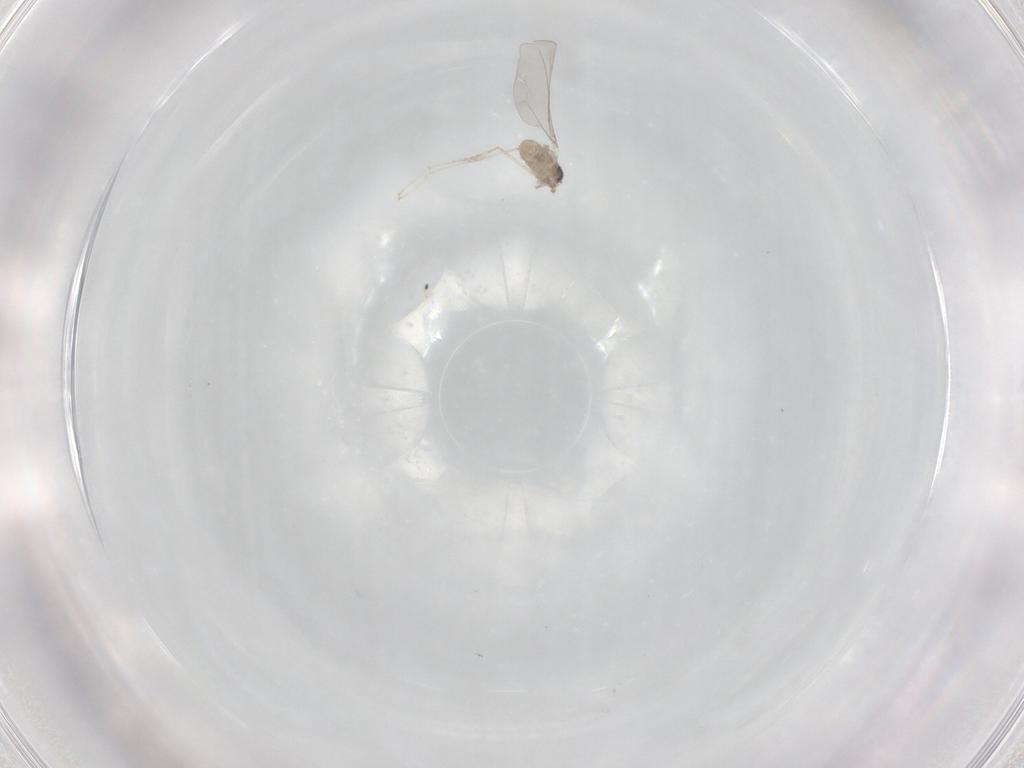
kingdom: Animalia
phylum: Arthropoda
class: Insecta
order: Diptera
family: Cecidomyiidae
